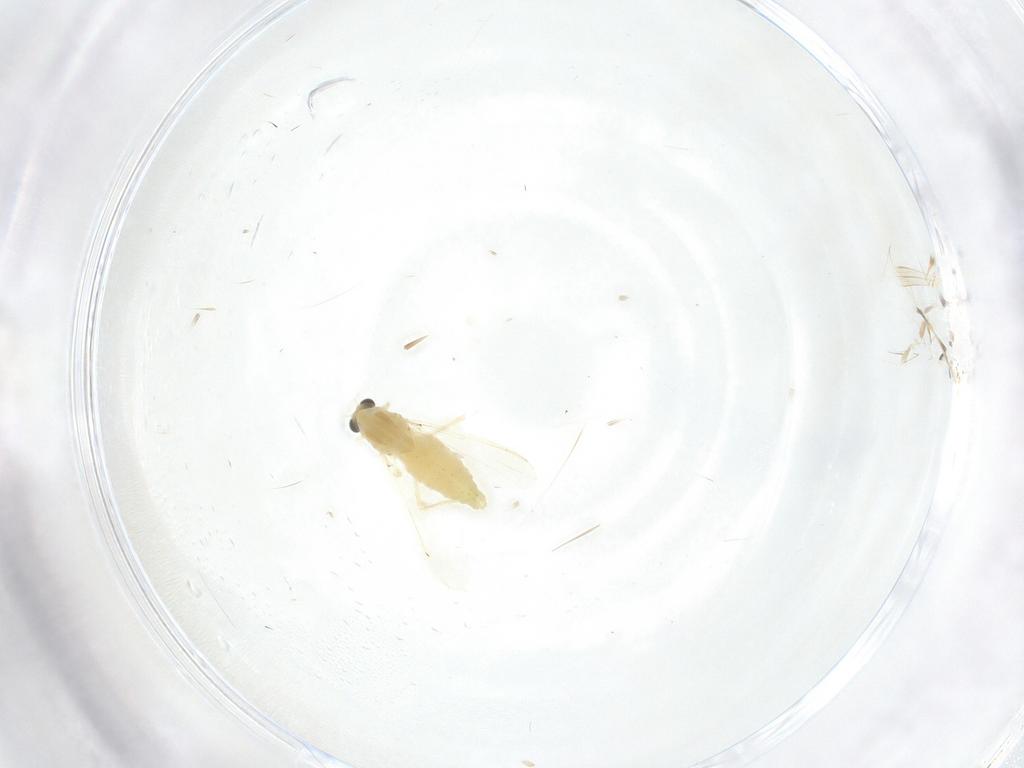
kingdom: Animalia
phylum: Arthropoda
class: Insecta
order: Diptera
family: Chironomidae
